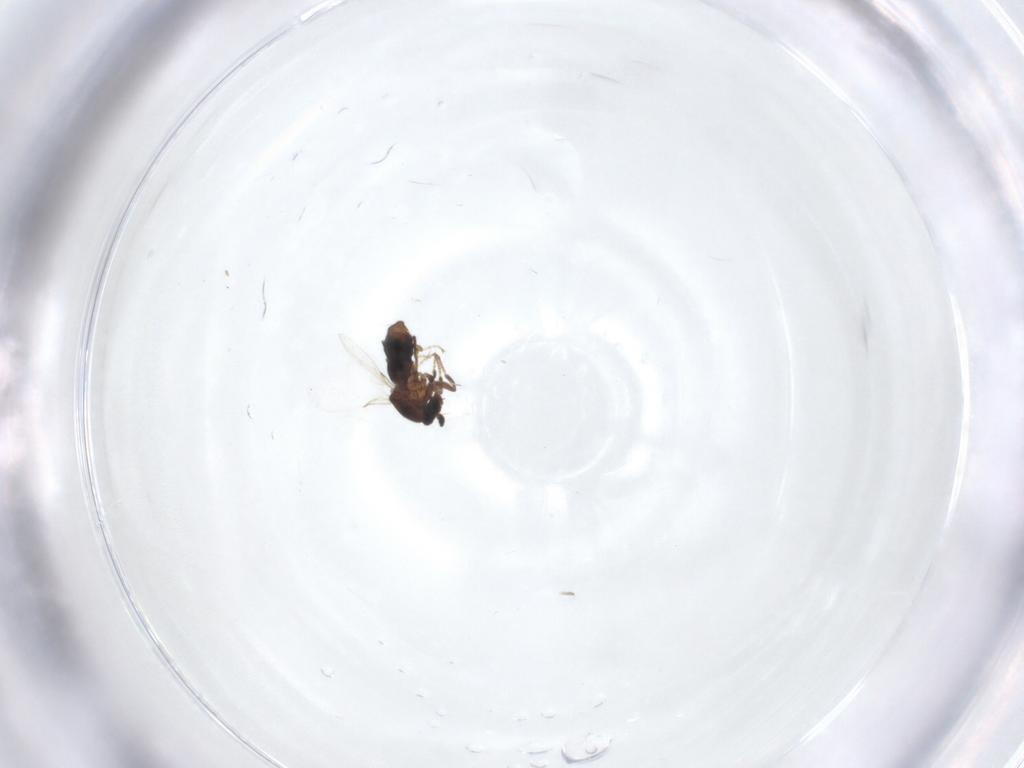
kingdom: Animalia
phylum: Arthropoda
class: Insecta
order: Diptera
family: Scatopsidae
